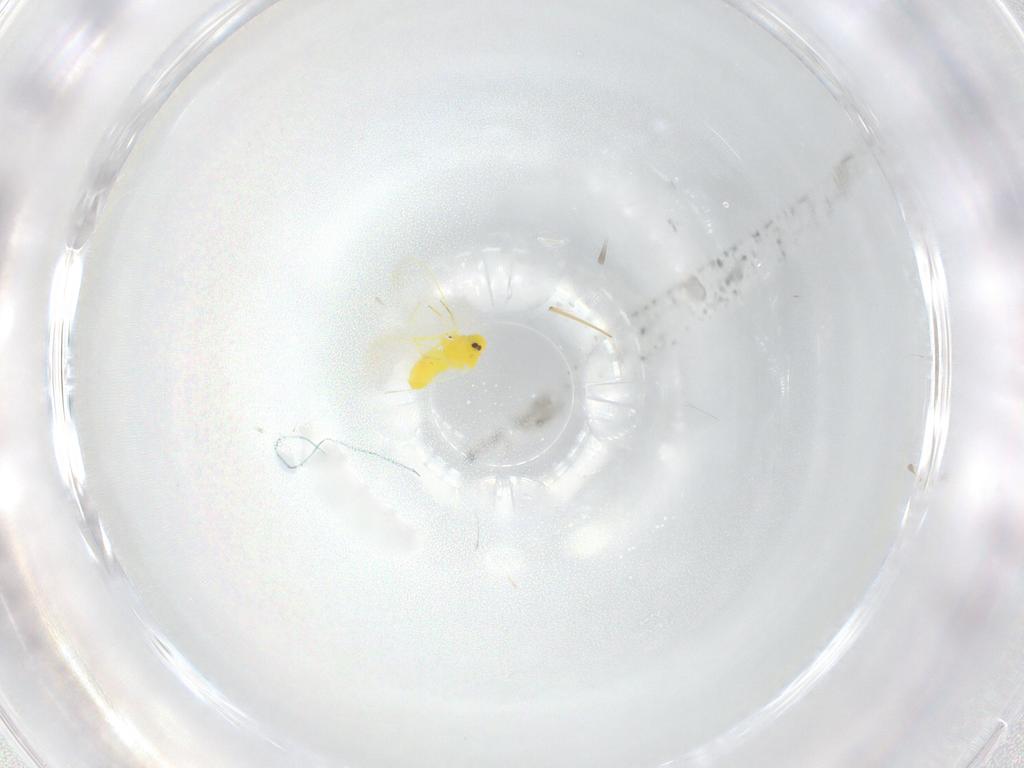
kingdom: Animalia
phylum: Arthropoda
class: Insecta
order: Hemiptera
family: Aleyrodidae
